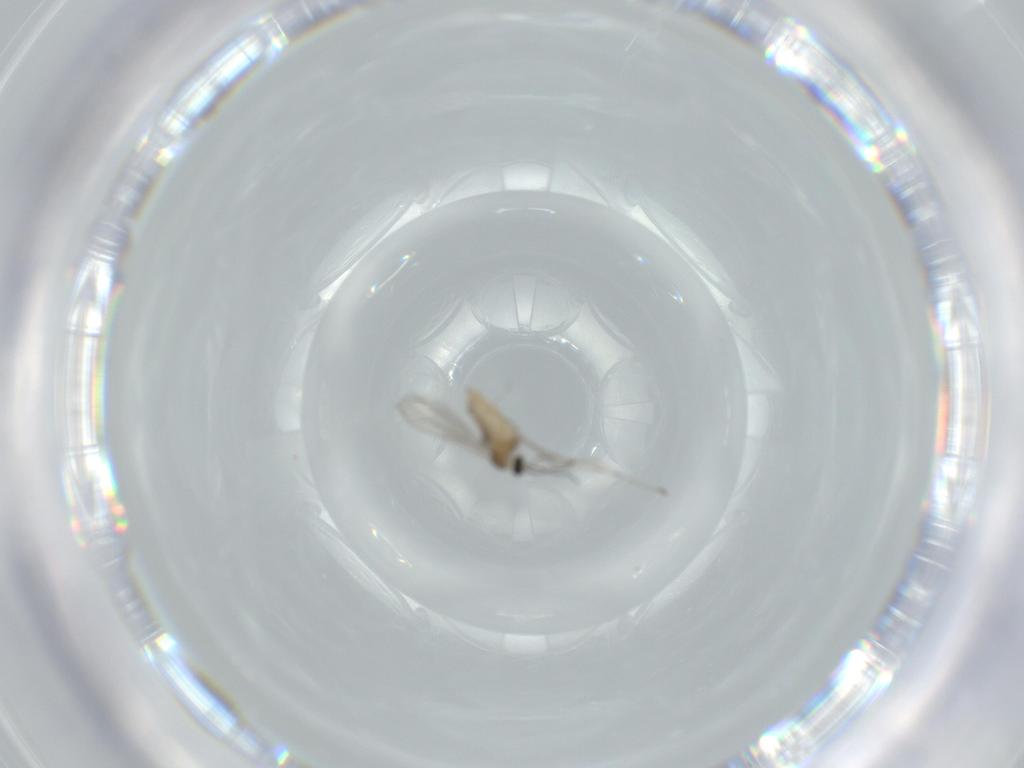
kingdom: Animalia
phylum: Arthropoda
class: Insecta
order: Diptera
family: Cecidomyiidae
